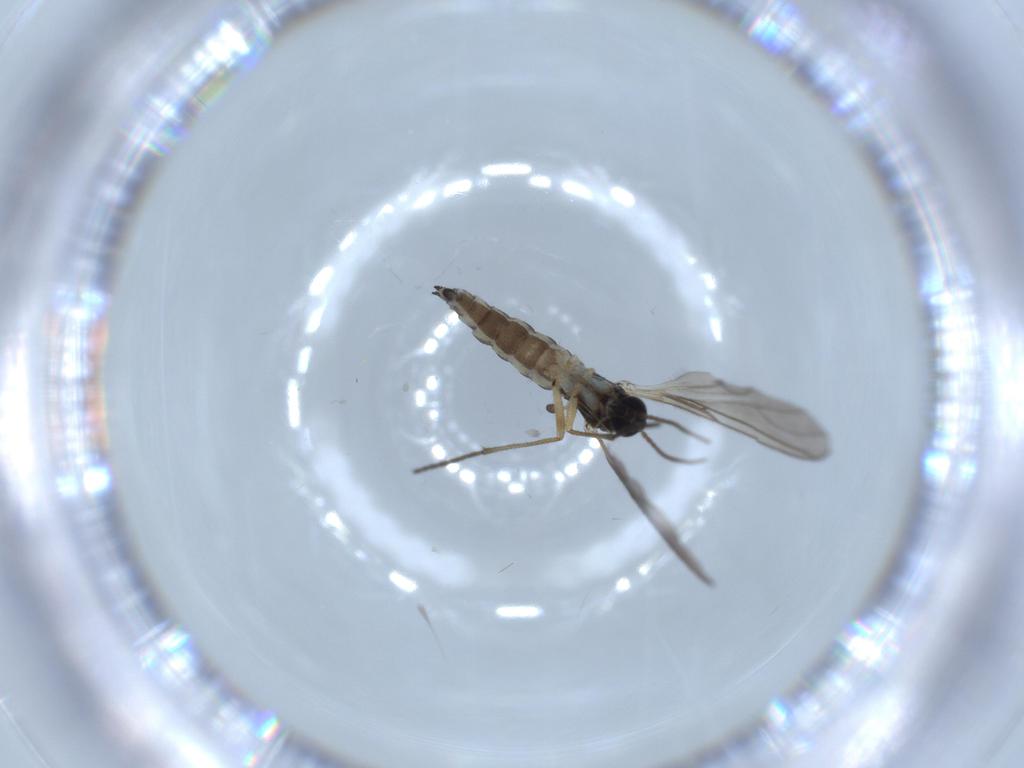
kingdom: Animalia
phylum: Arthropoda
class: Insecta
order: Diptera
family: Sciaridae
